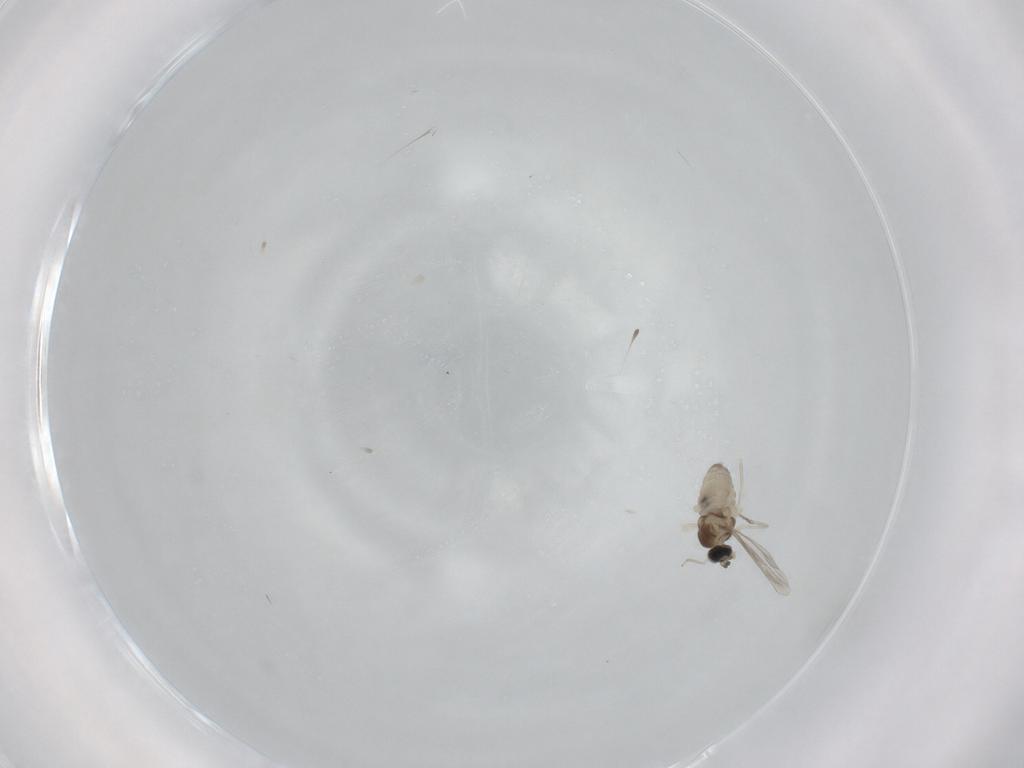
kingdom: Animalia
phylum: Arthropoda
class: Insecta
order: Diptera
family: Cecidomyiidae
